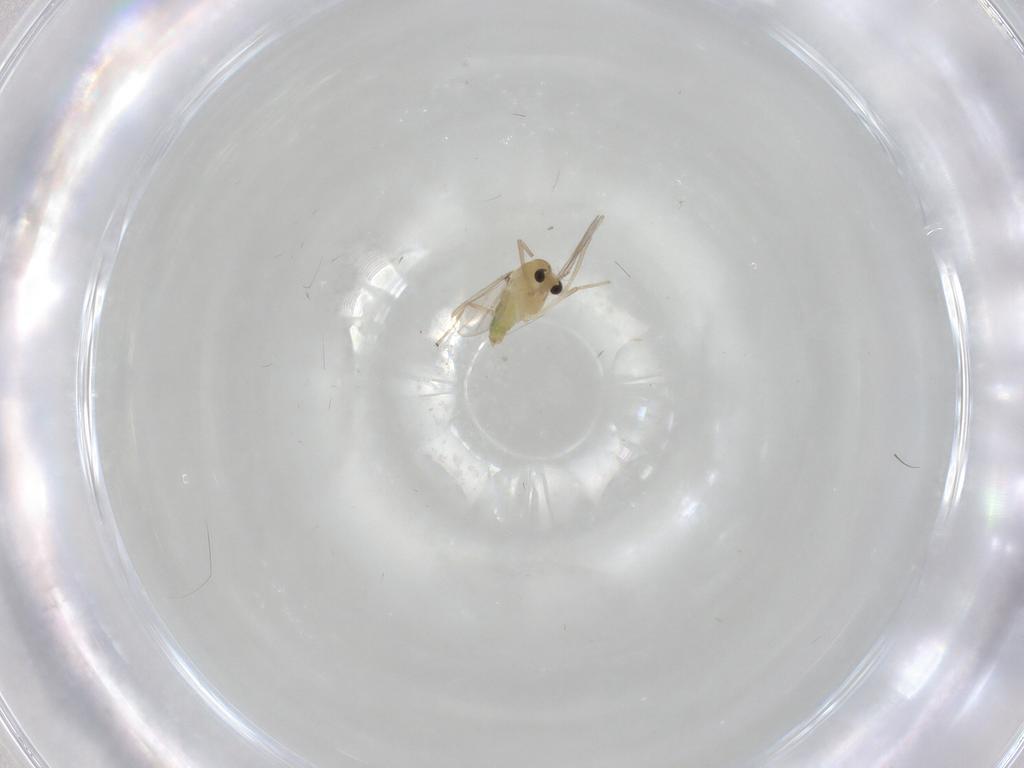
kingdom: Animalia
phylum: Arthropoda
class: Insecta
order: Diptera
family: Chironomidae
